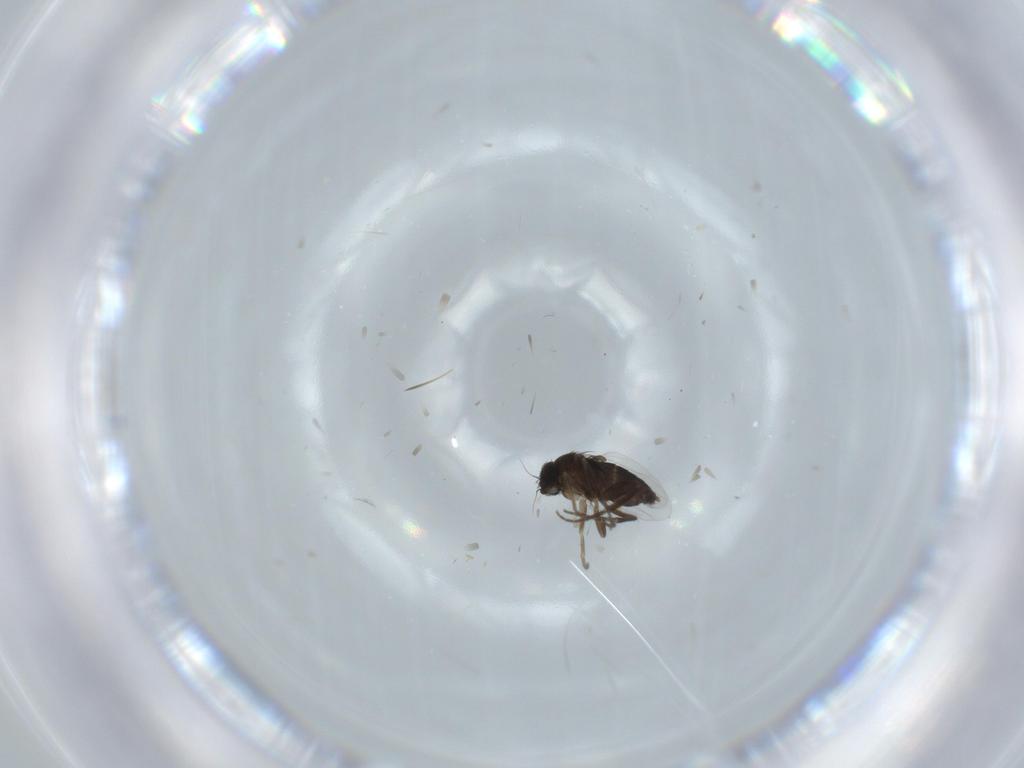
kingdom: Animalia
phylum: Arthropoda
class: Insecta
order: Diptera
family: Phoridae
